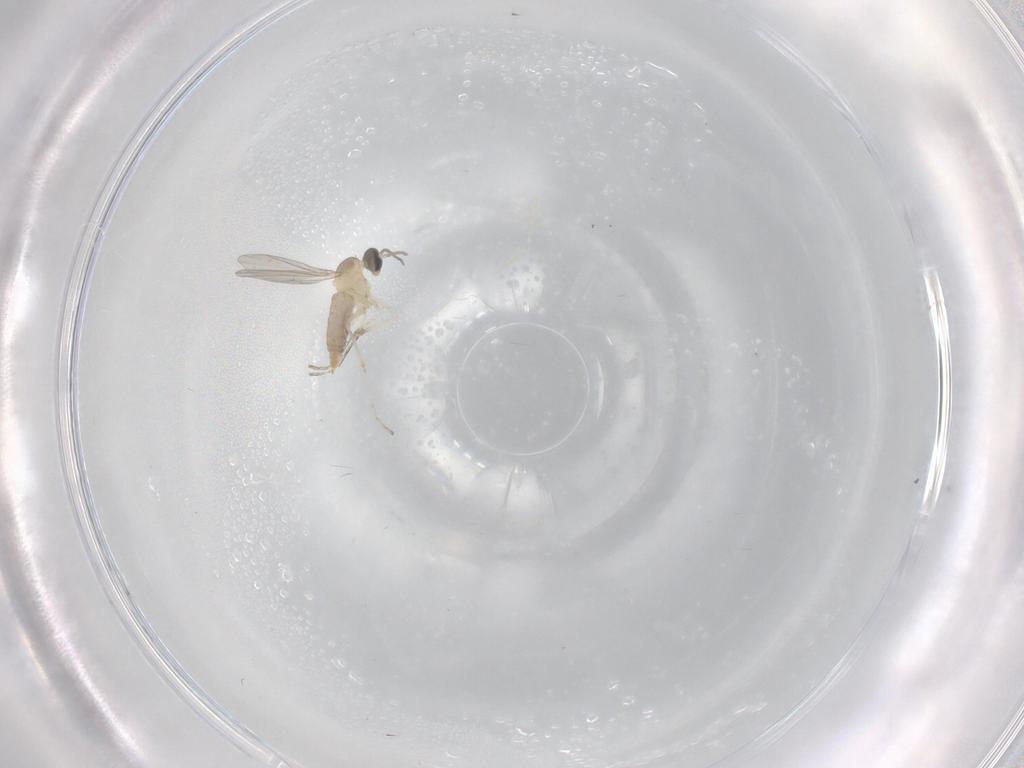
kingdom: Animalia
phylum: Arthropoda
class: Insecta
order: Diptera
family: Cecidomyiidae
